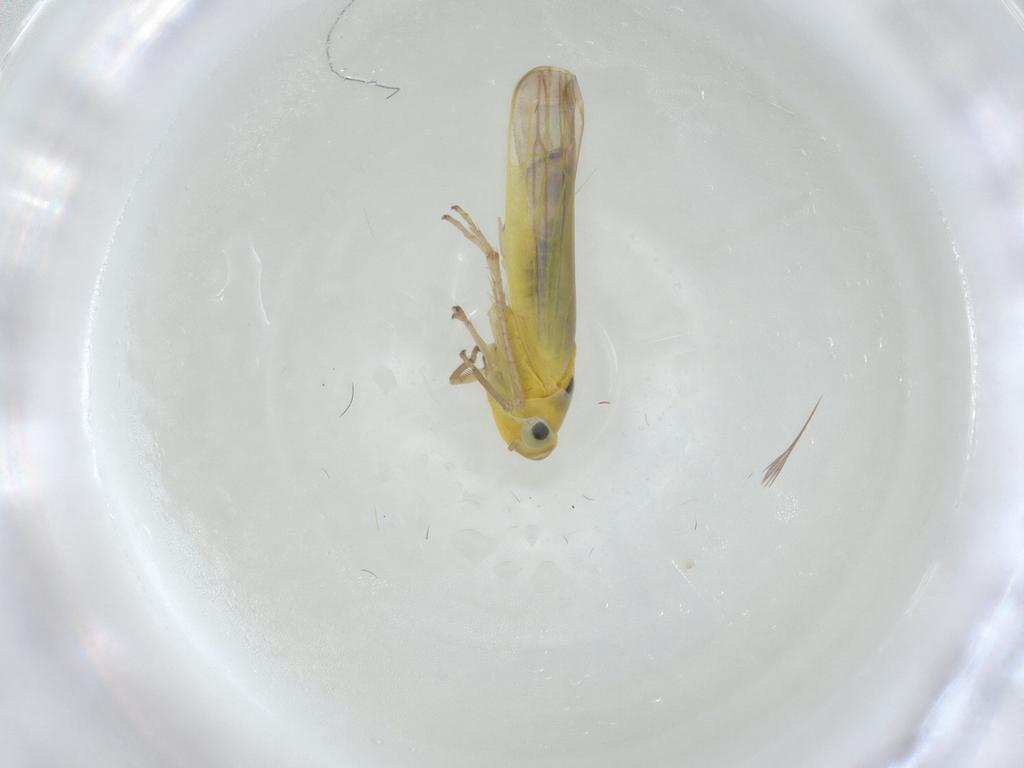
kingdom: Animalia
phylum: Arthropoda
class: Insecta
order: Hemiptera
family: Cicadellidae
